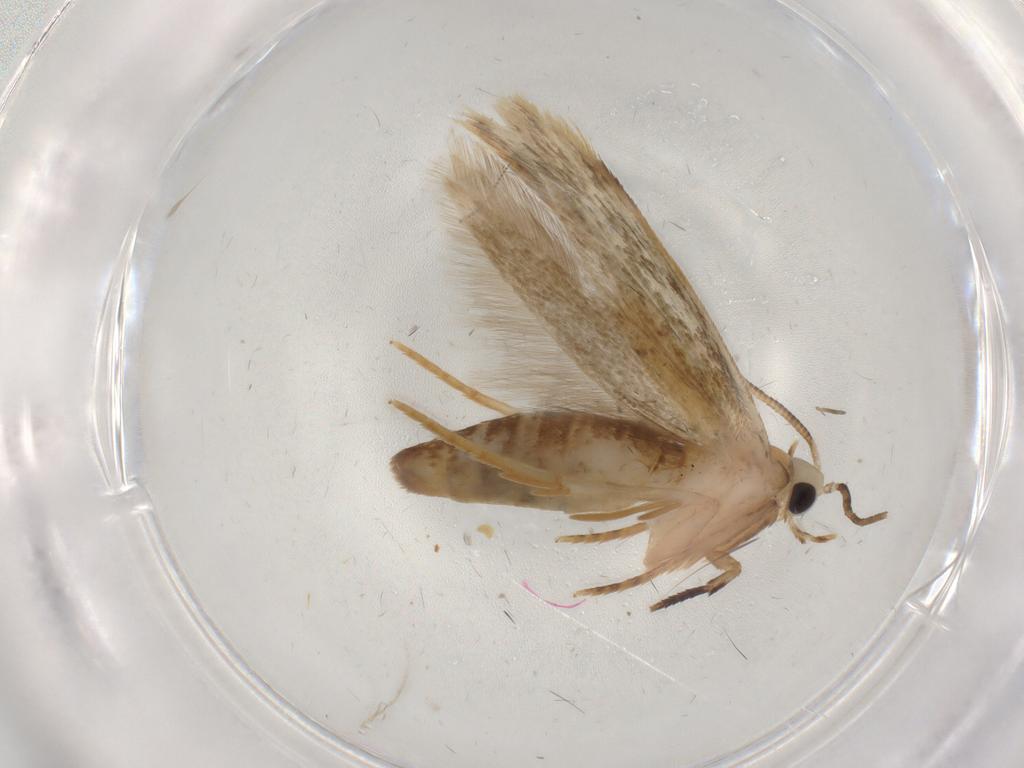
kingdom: Animalia
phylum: Arthropoda
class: Insecta
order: Lepidoptera
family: Tineidae
